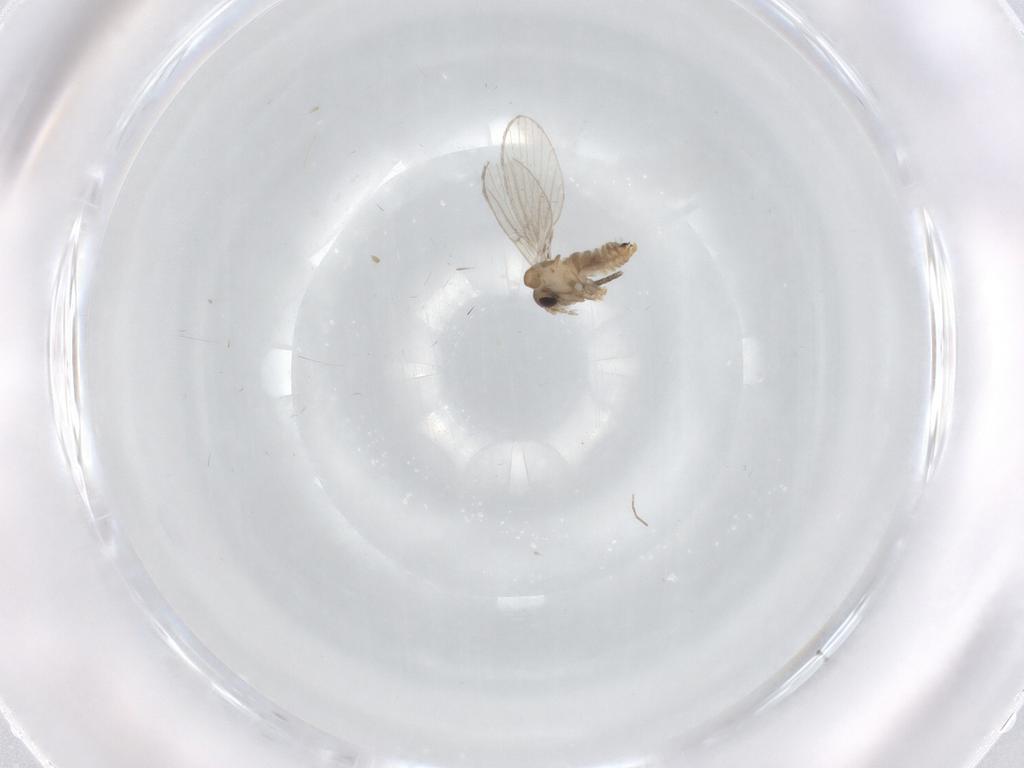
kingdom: Animalia
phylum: Arthropoda
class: Insecta
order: Diptera
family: Sciaridae
